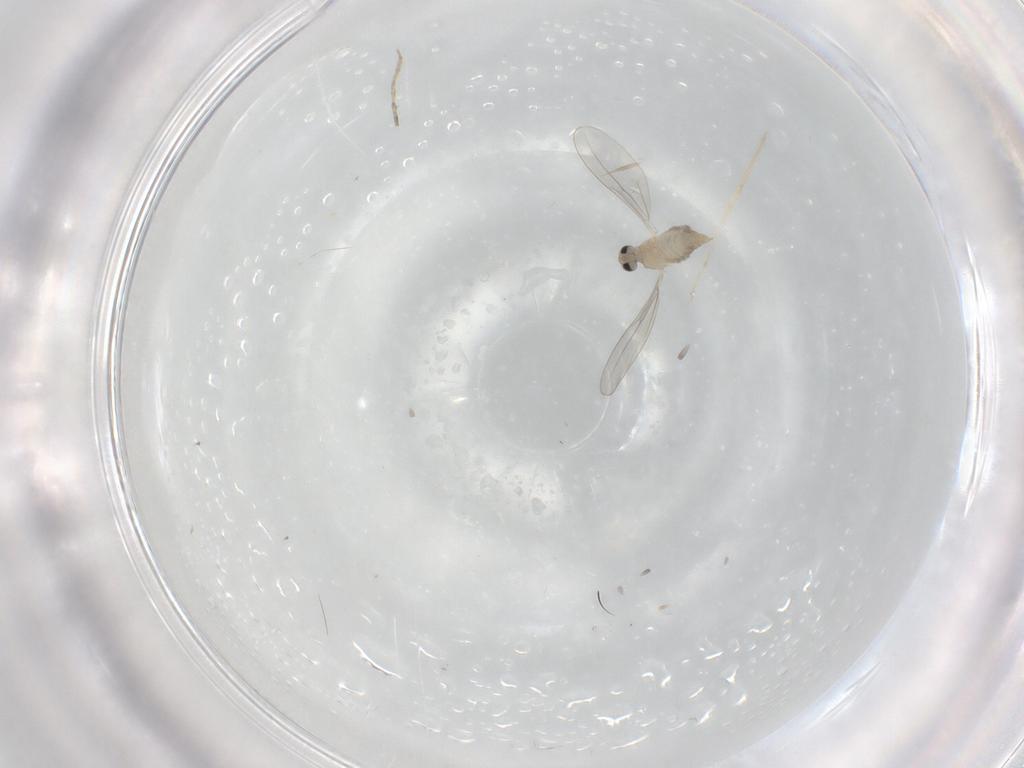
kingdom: Animalia
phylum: Arthropoda
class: Insecta
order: Diptera
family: Cecidomyiidae
